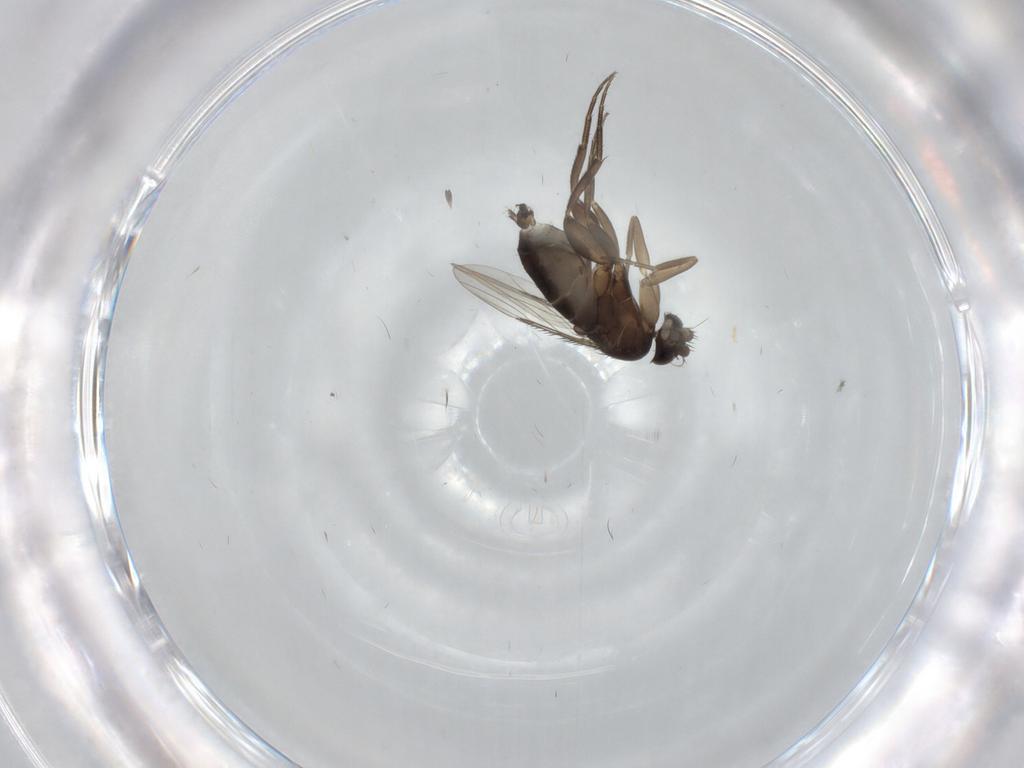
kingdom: Animalia
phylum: Arthropoda
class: Insecta
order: Diptera
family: Phoridae
